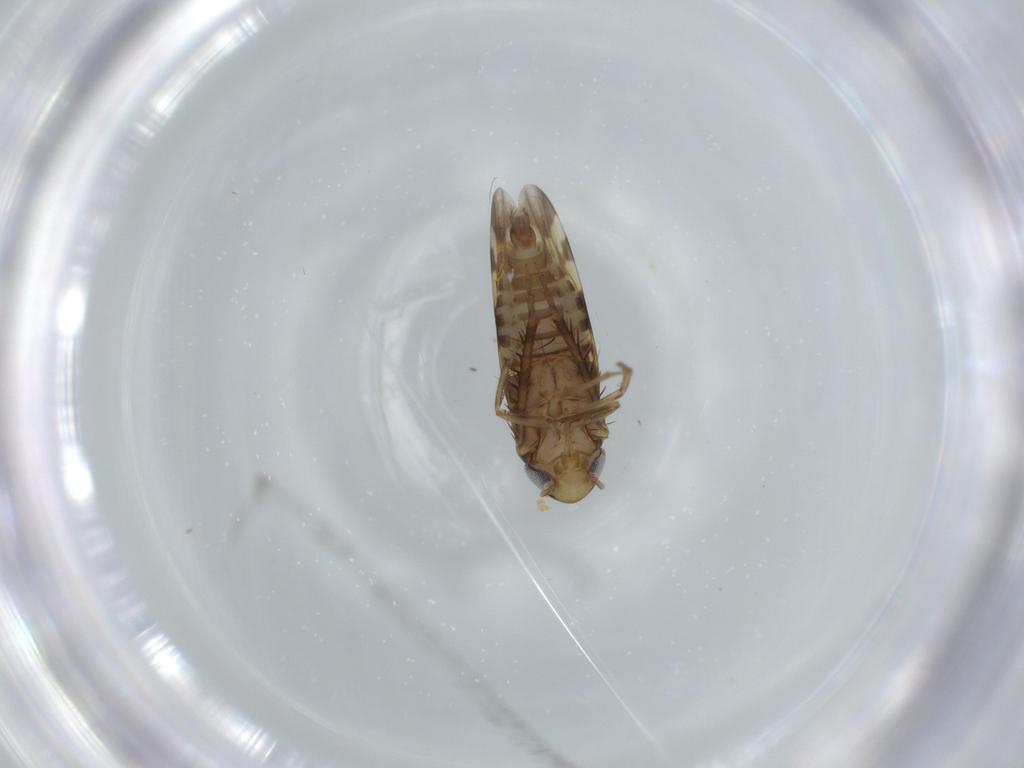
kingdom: Animalia
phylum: Arthropoda
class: Insecta
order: Hemiptera
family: Cicadellidae
